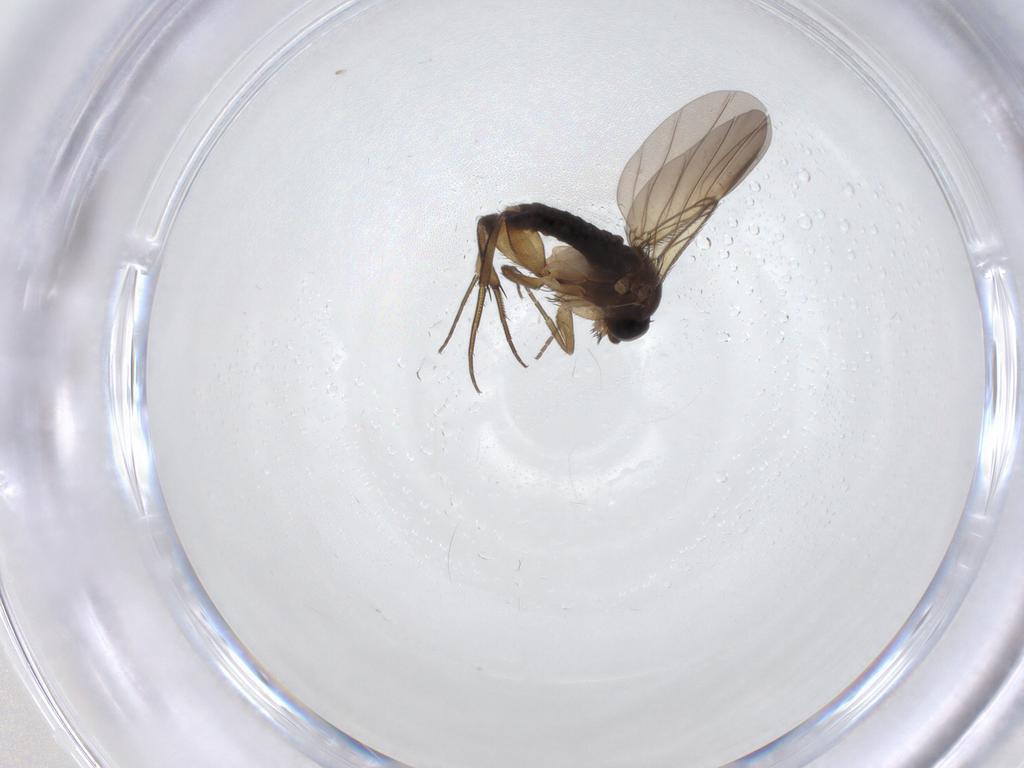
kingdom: Animalia
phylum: Arthropoda
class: Insecta
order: Diptera
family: Phoridae
